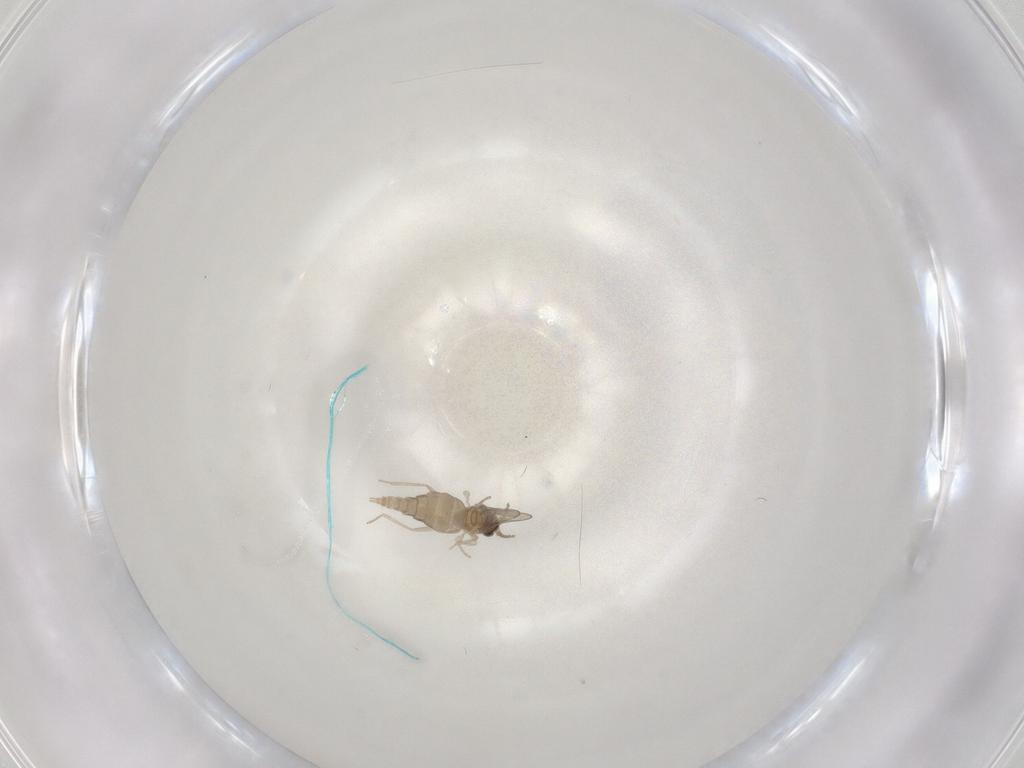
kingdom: Animalia
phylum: Arthropoda
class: Insecta
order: Diptera
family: Cecidomyiidae
